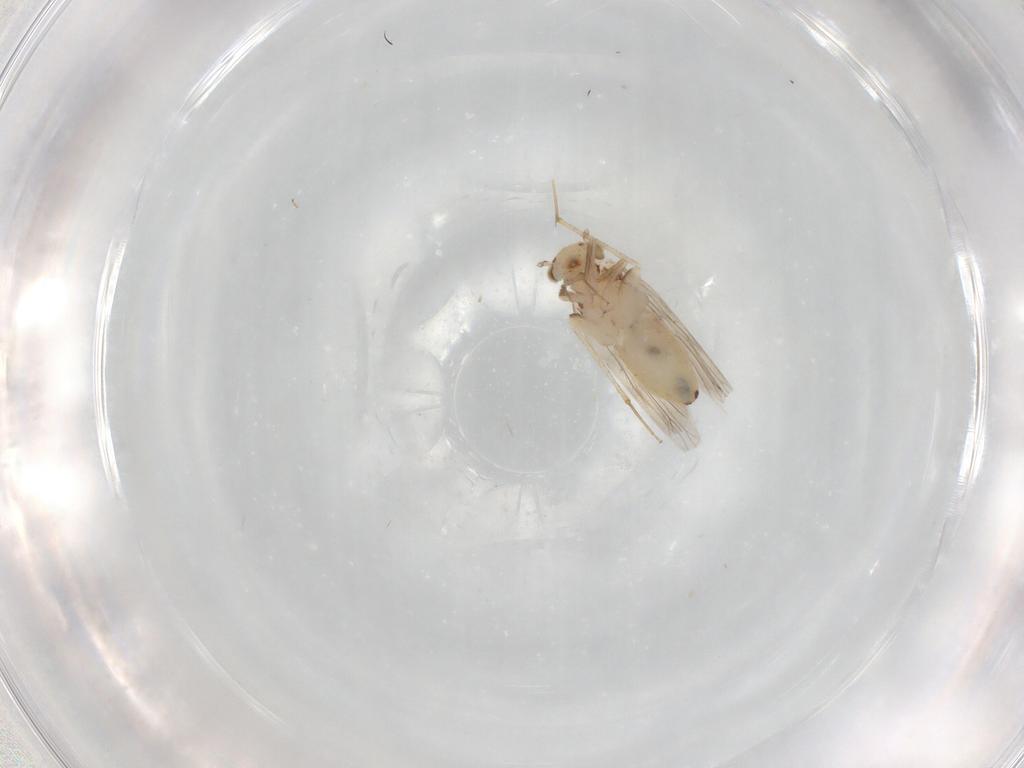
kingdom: Animalia
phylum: Arthropoda
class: Insecta
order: Psocodea
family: Lepidopsocidae
